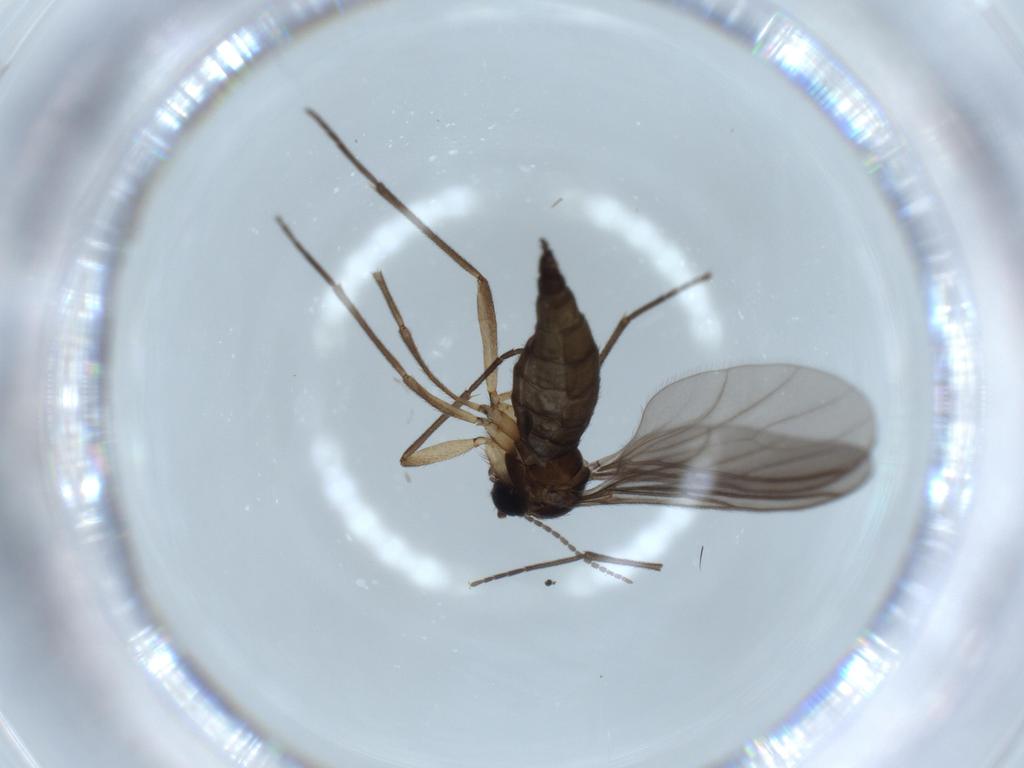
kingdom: Animalia
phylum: Arthropoda
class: Insecta
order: Diptera
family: Sciaridae
